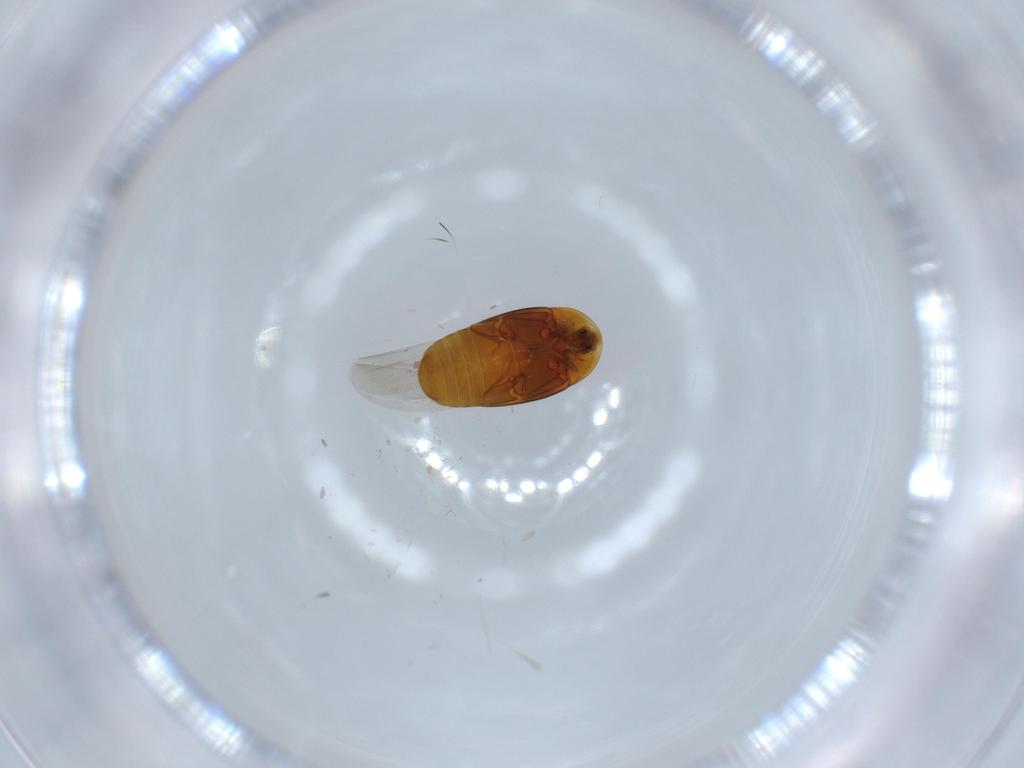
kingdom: Animalia
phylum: Arthropoda
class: Insecta
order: Coleoptera
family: Corylophidae
